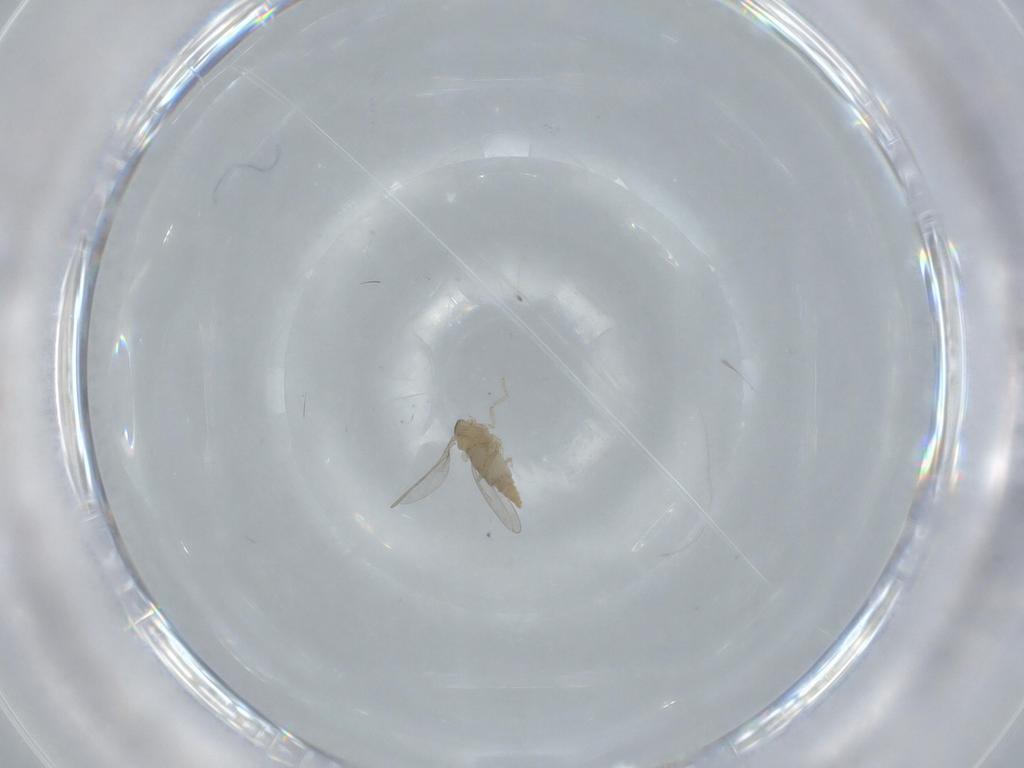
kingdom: Animalia
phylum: Arthropoda
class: Insecta
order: Diptera
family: Cecidomyiidae
